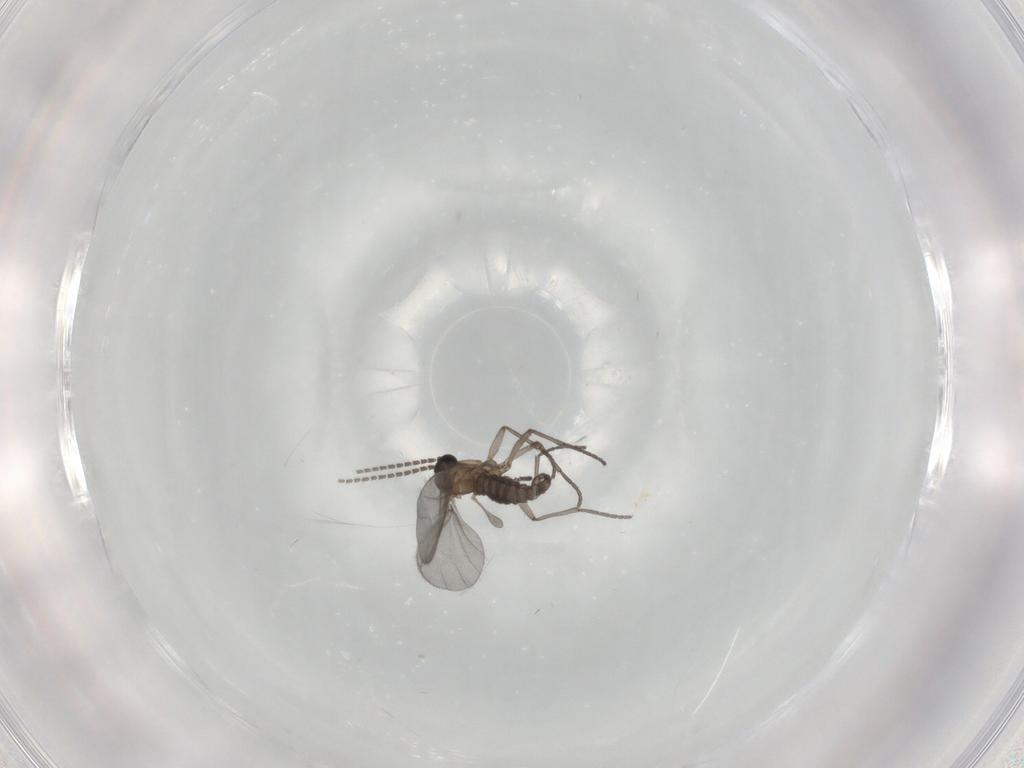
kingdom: Animalia
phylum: Arthropoda
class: Insecta
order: Diptera
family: Sciaridae
